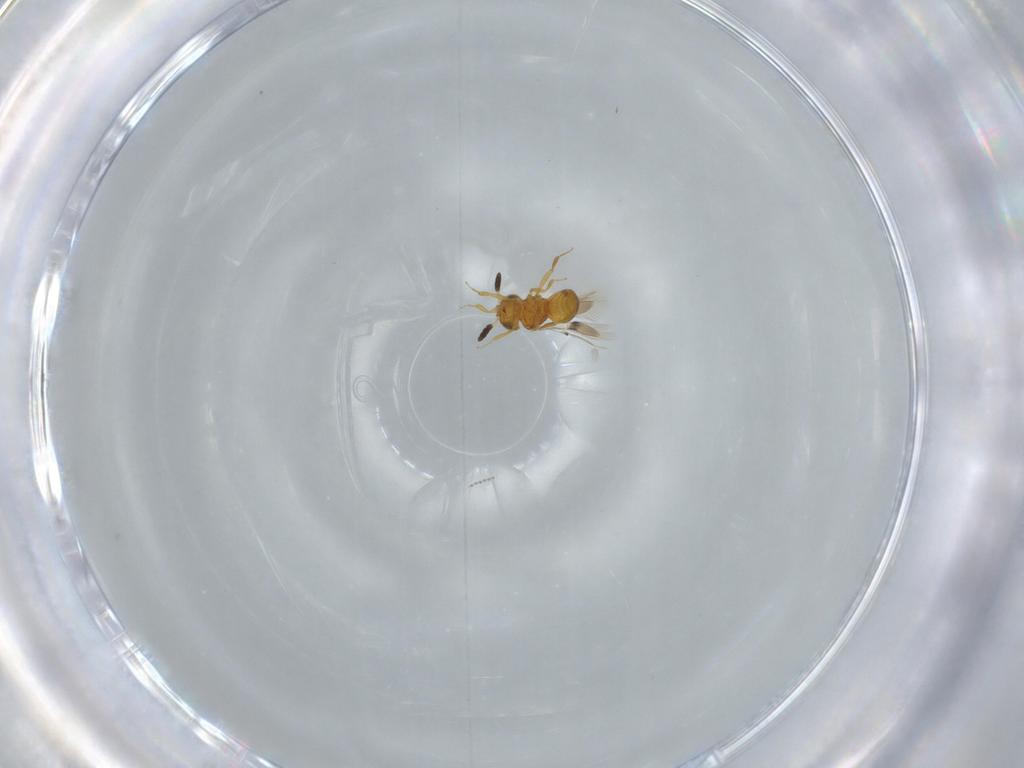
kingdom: Animalia
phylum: Arthropoda
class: Insecta
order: Hymenoptera
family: Scelionidae
